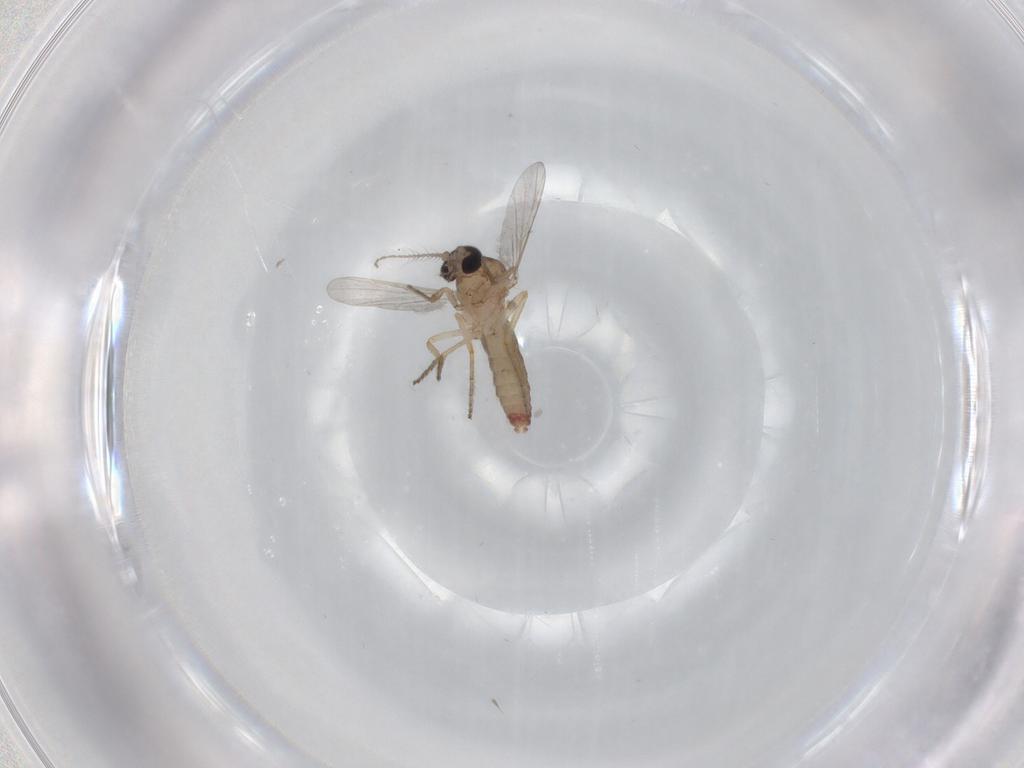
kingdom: Animalia
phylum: Arthropoda
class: Insecta
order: Diptera
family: Ceratopogonidae
